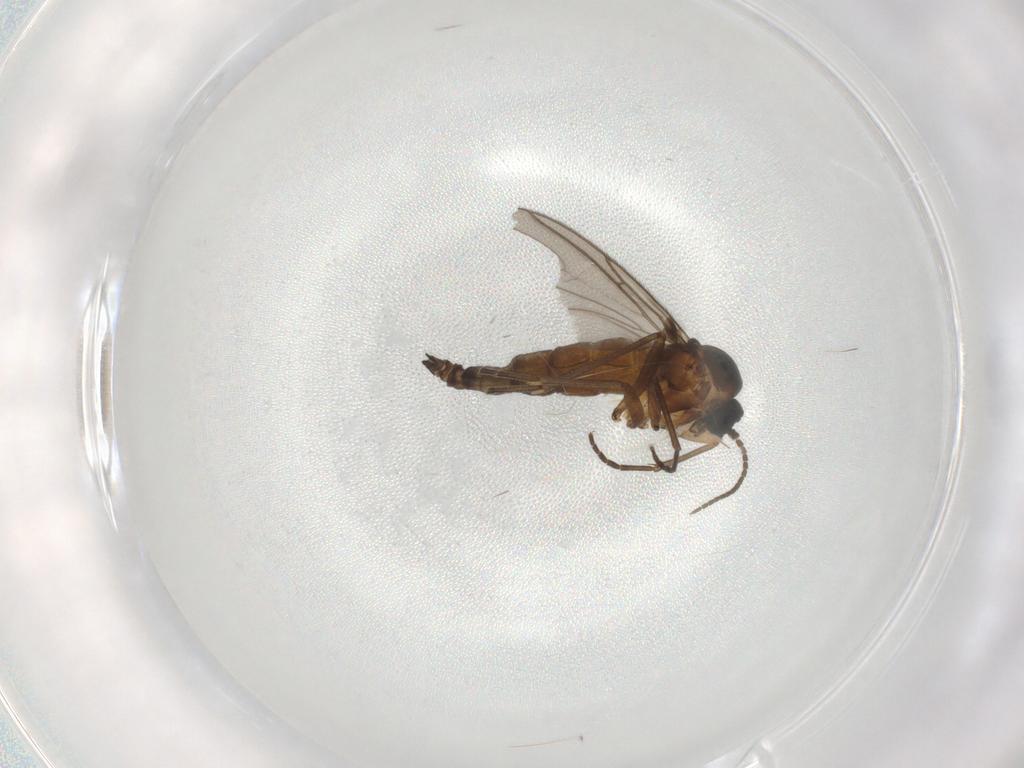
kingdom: Animalia
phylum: Arthropoda
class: Insecta
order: Diptera
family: Sciaridae
